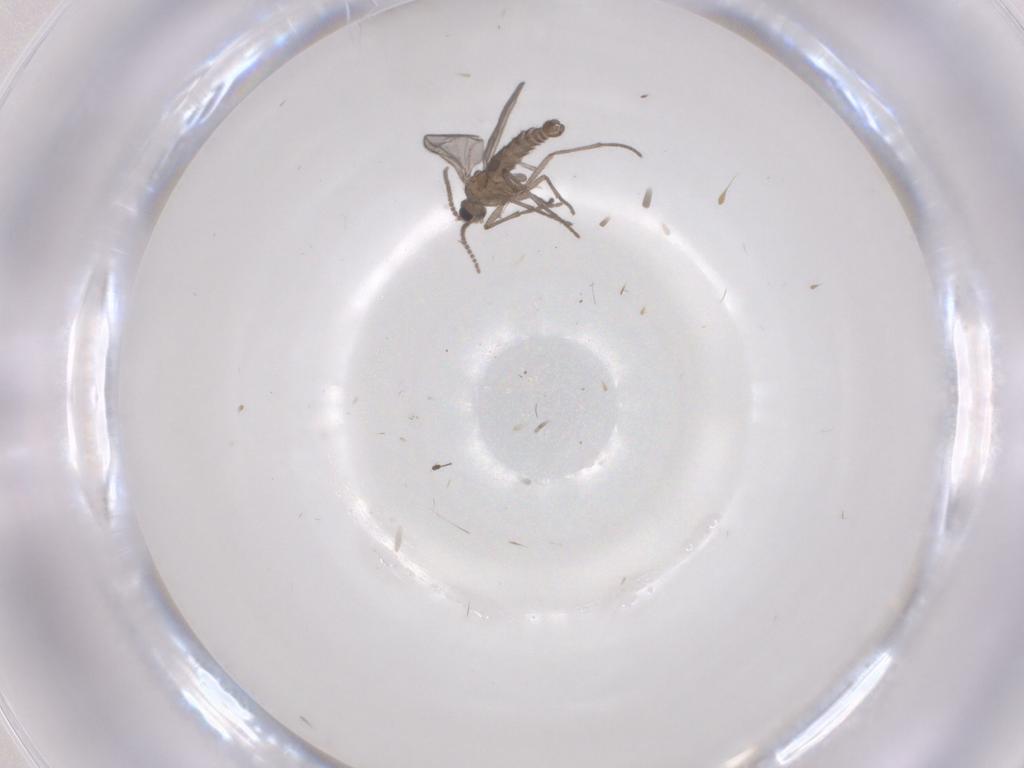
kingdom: Animalia
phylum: Arthropoda
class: Insecta
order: Diptera
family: Sciaridae
